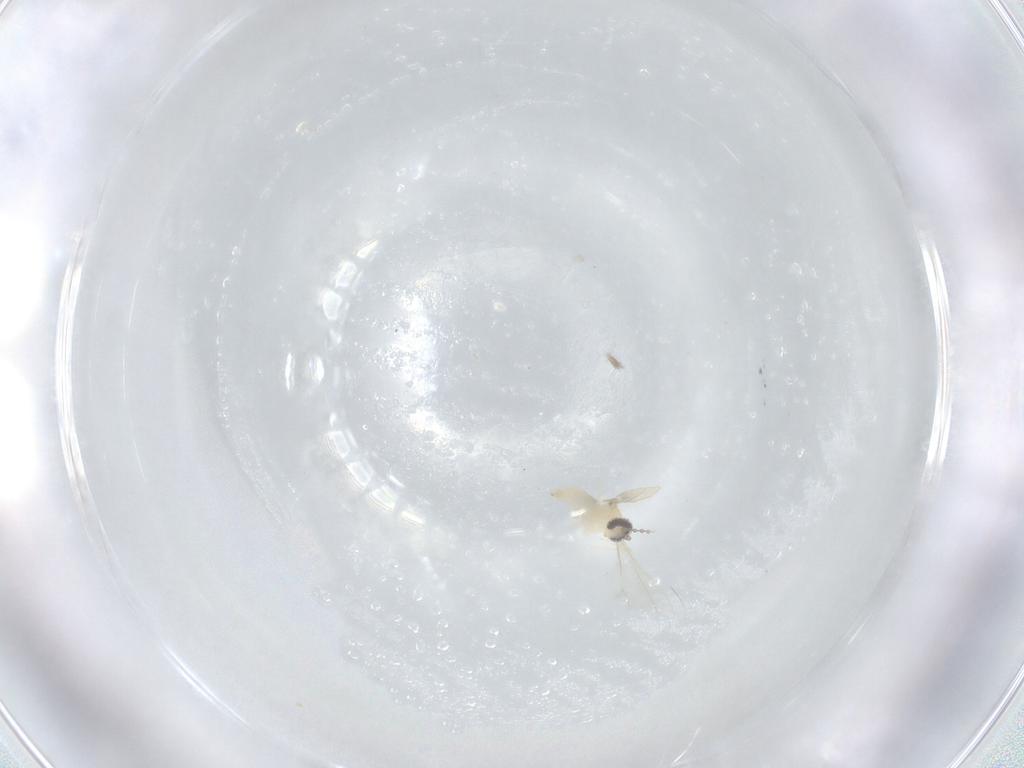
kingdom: Animalia
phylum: Arthropoda
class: Insecta
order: Diptera
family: Cecidomyiidae
